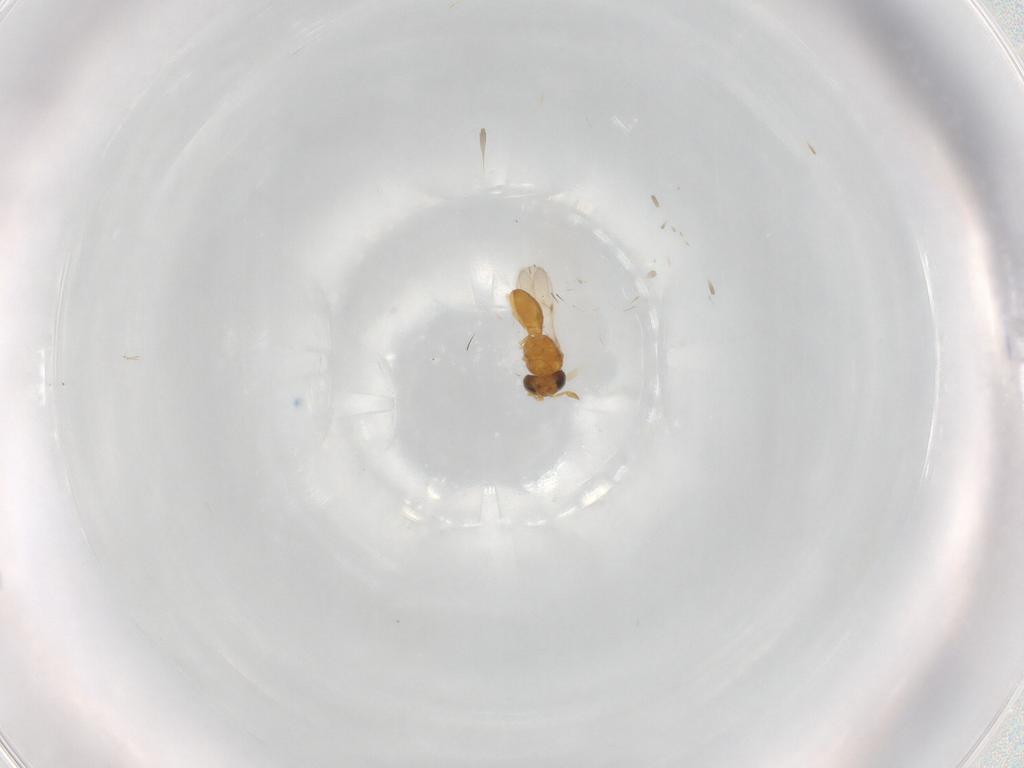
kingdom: Animalia
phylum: Arthropoda
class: Insecta
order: Hymenoptera
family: Scelionidae
